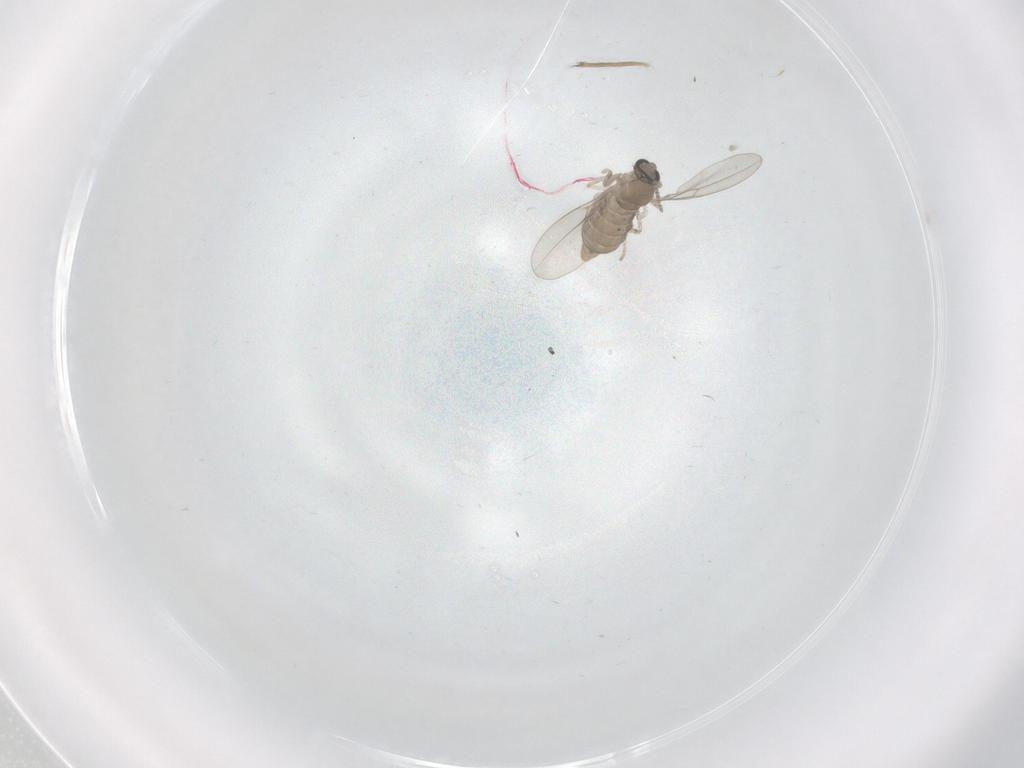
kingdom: Animalia
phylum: Arthropoda
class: Insecta
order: Diptera
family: Cecidomyiidae
